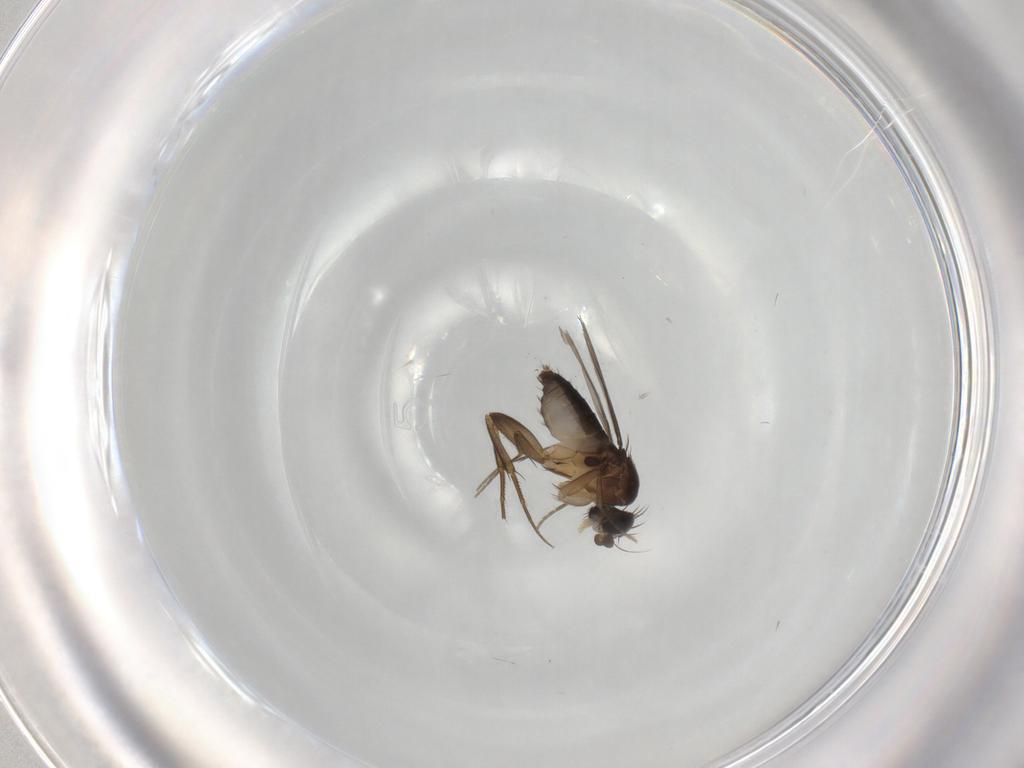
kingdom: Animalia
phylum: Arthropoda
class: Insecta
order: Diptera
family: Phoridae
